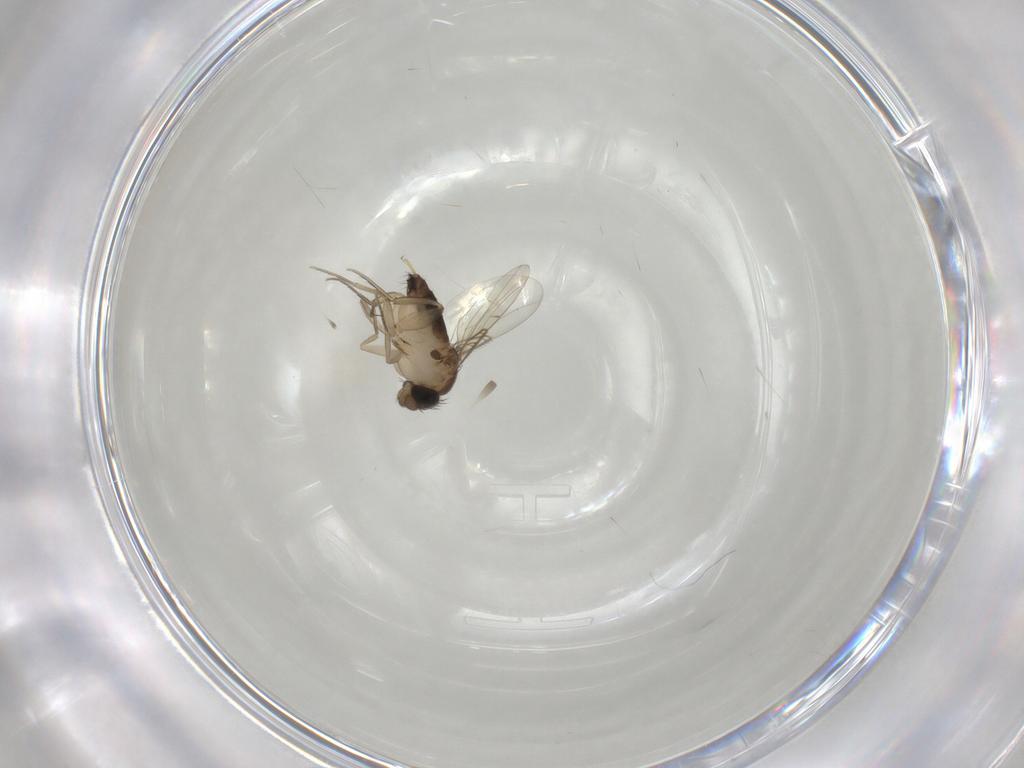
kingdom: Animalia
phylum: Arthropoda
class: Insecta
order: Diptera
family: Phoridae
